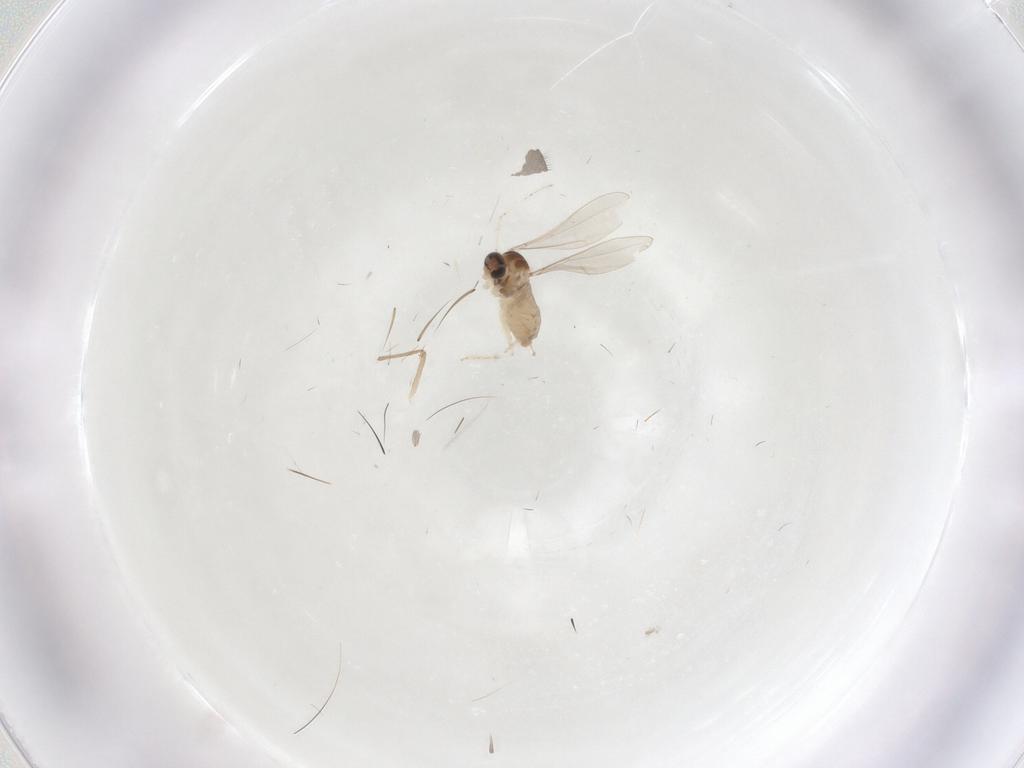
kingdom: Animalia
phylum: Arthropoda
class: Insecta
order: Diptera
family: Chironomidae
